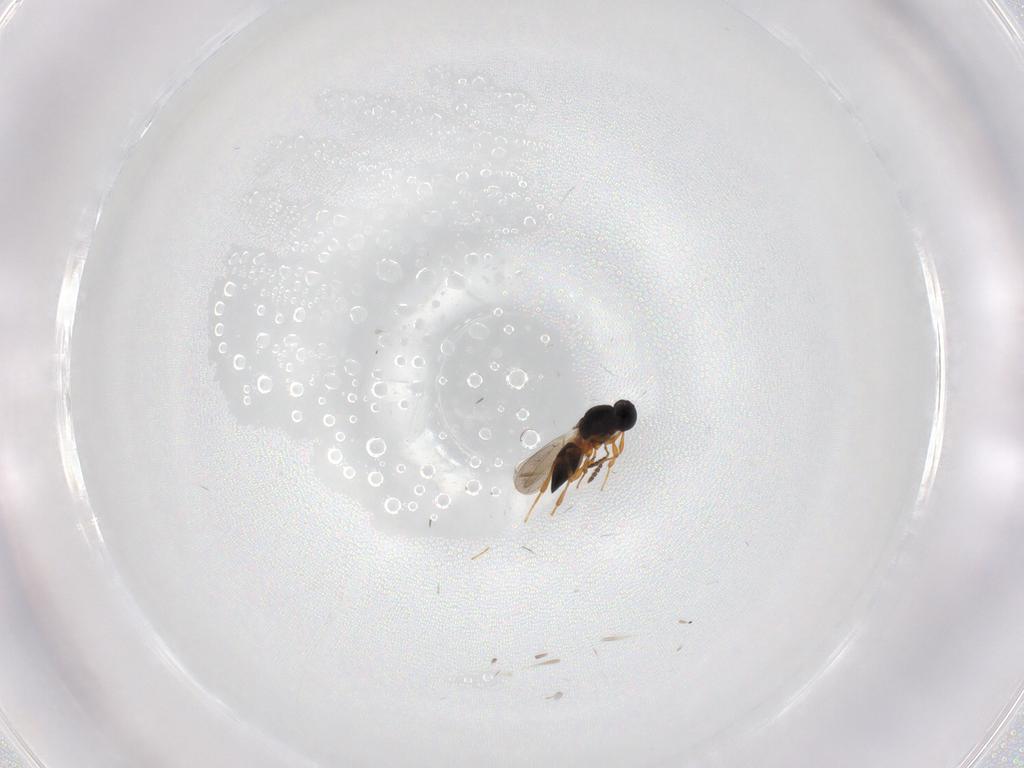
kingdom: Animalia
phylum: Arthropoda
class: Insecta
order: Hymenoptera
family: Platygastridae
